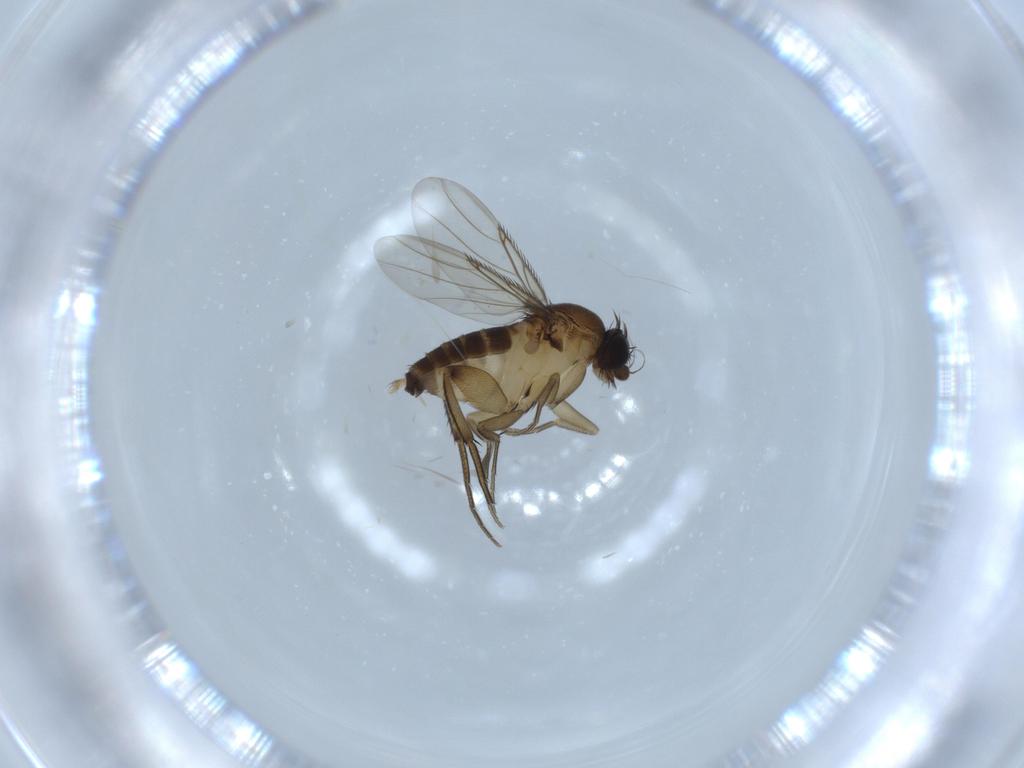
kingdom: Animalia
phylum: Arthropoda
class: Insecta
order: Diptera
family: Phoridae
